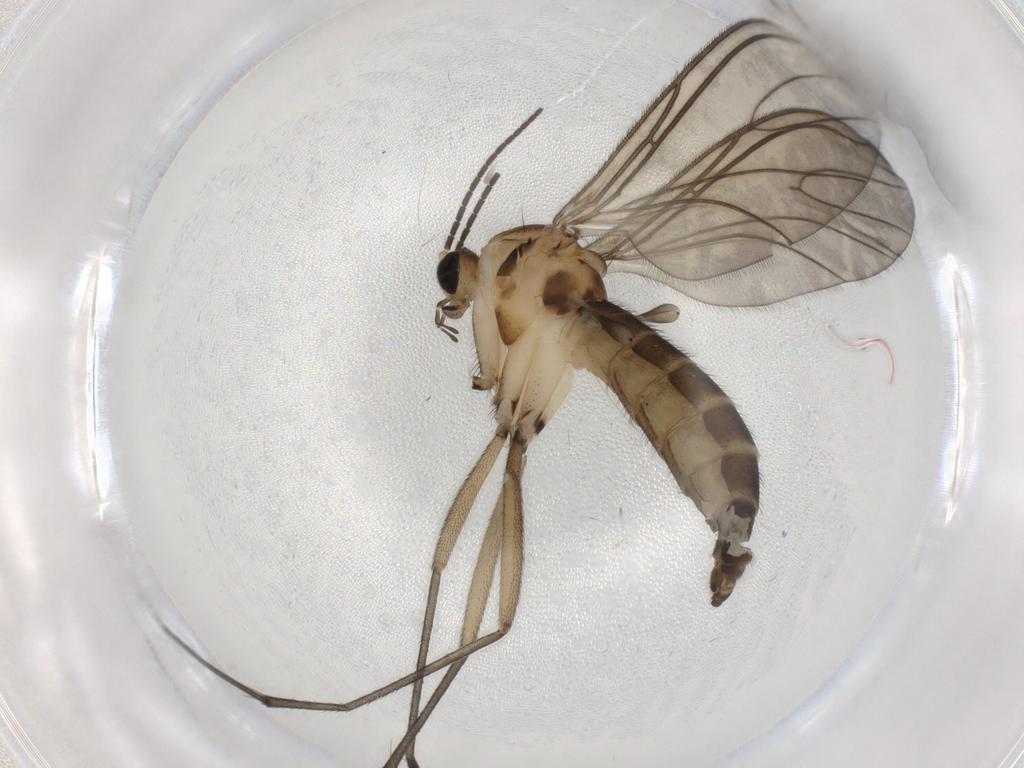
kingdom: Animalia
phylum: Arthropoda
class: Insecta
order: Diptera
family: Sciaridae
